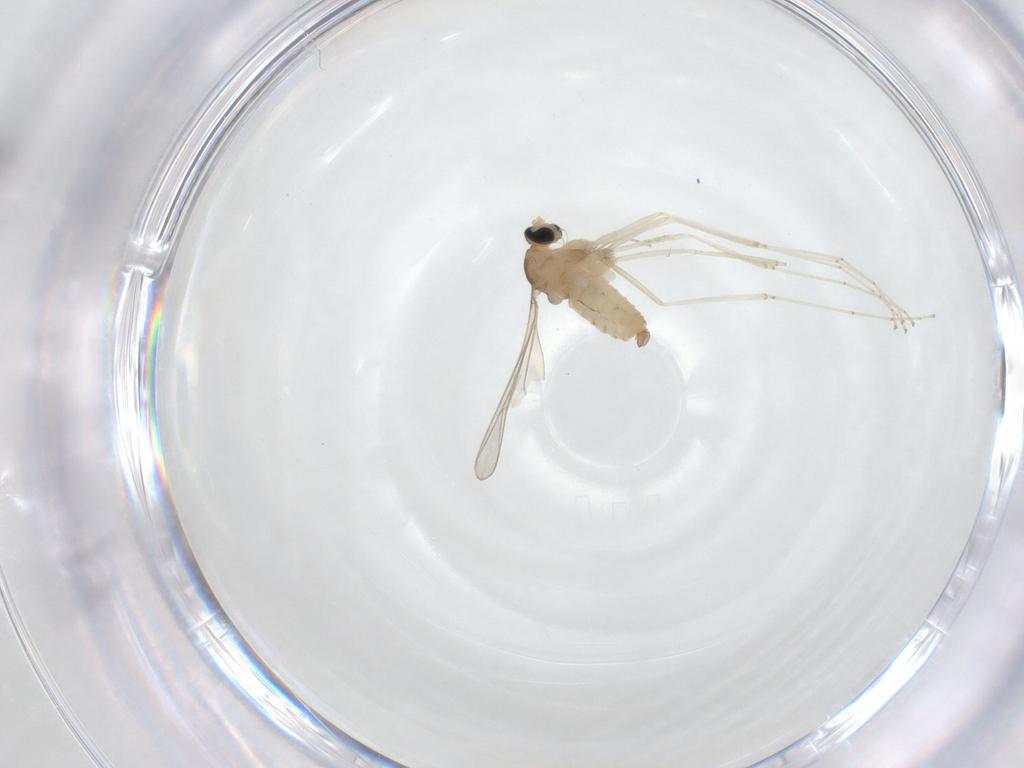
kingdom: Animalia
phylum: Arthropoda
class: Insecta
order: Diptera
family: Cecidomyiidae
